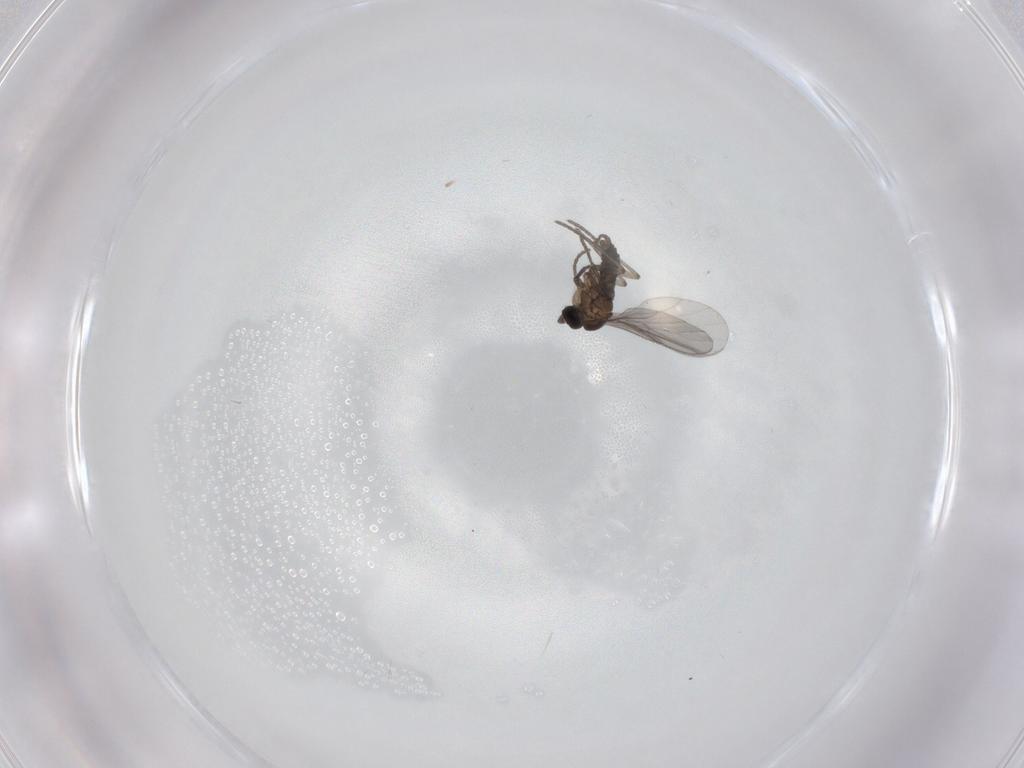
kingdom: Animalia
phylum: Arthropoda
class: Insecta
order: Diptera
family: Ceratopogonidae
